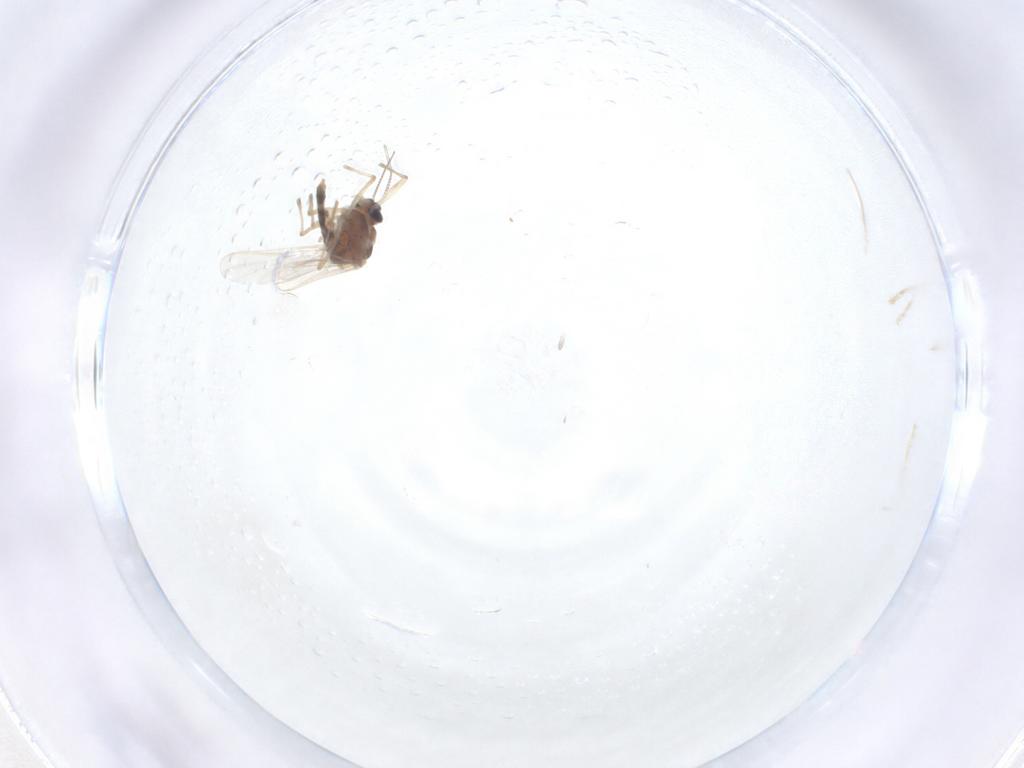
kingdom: Animalia
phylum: Arthropoda
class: Insecta
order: Diptera
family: Chironomidae
